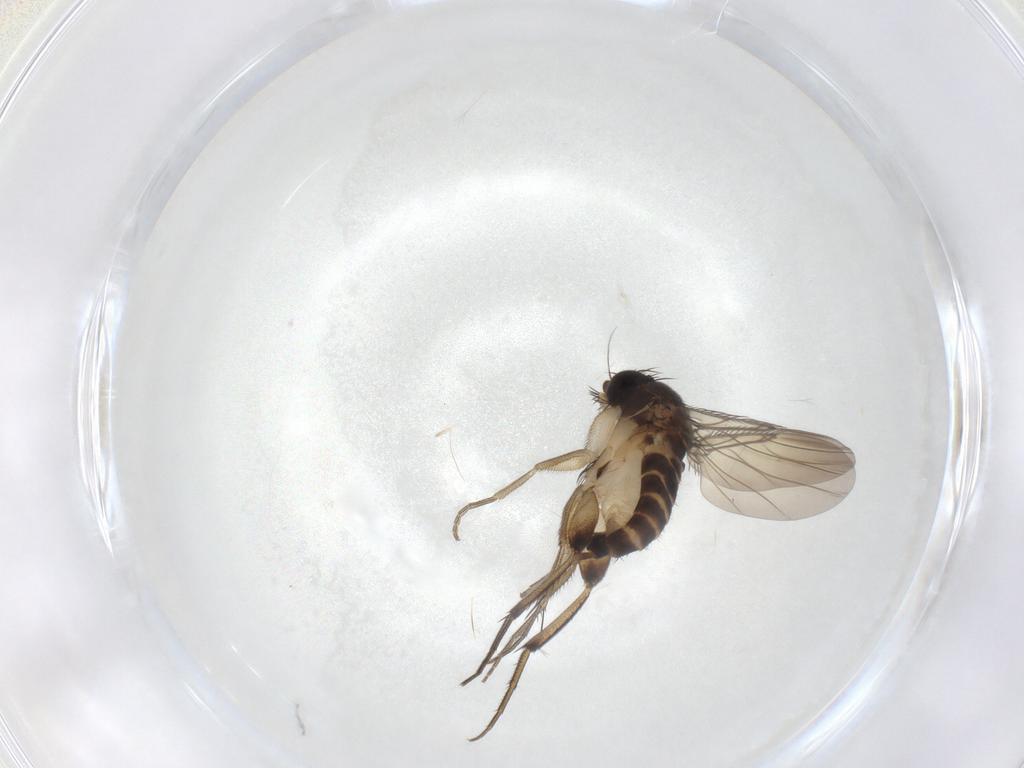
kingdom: Animalia
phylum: Arthropoda
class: Insecta
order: Diptera
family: Phoridae
